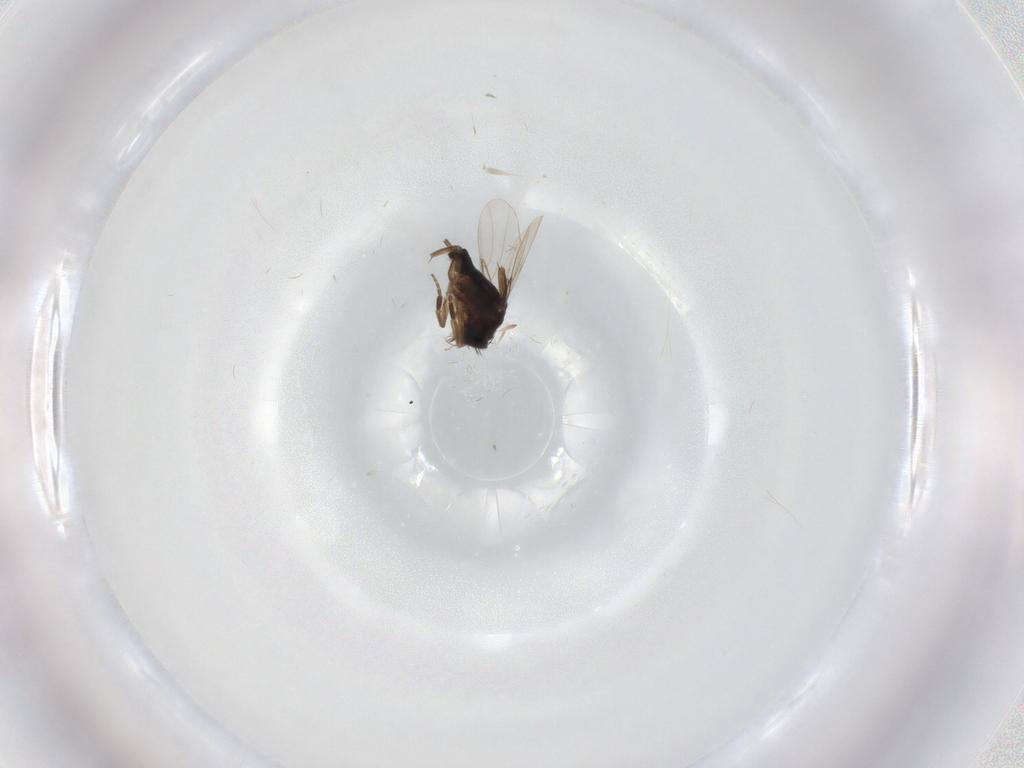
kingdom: Animalia
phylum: Arthropoda
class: Insecta
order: Diptera
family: Phoridae
